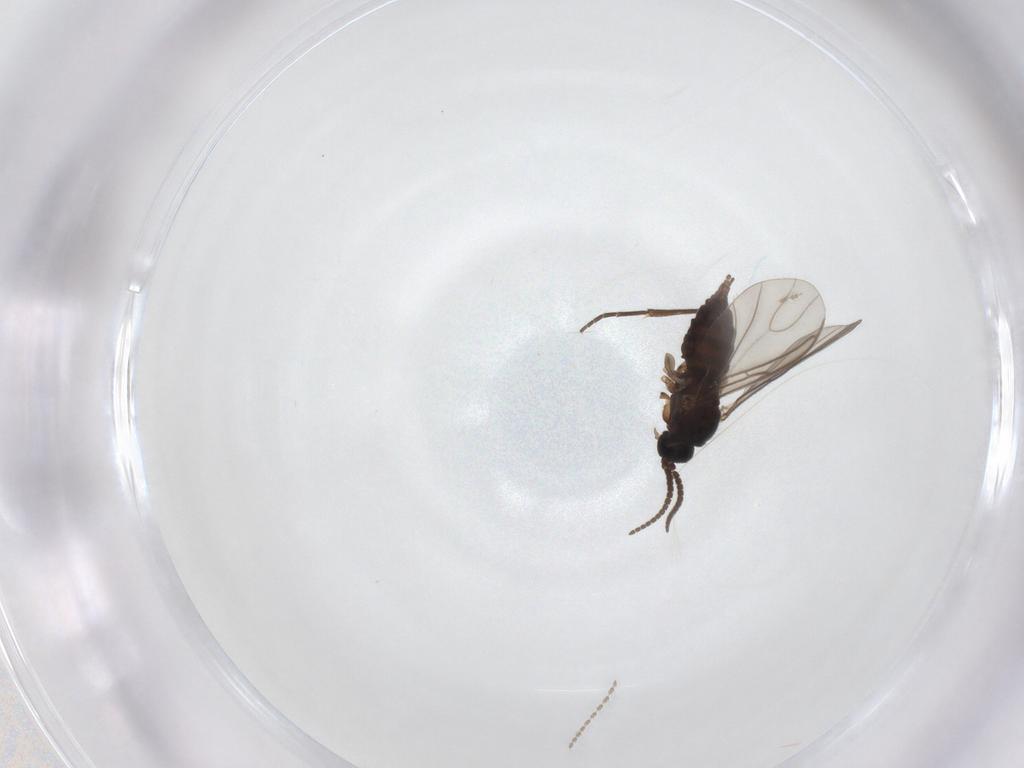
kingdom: Animalia
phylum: Arthropoda
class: Insecta
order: Diptera
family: Sciaridae
